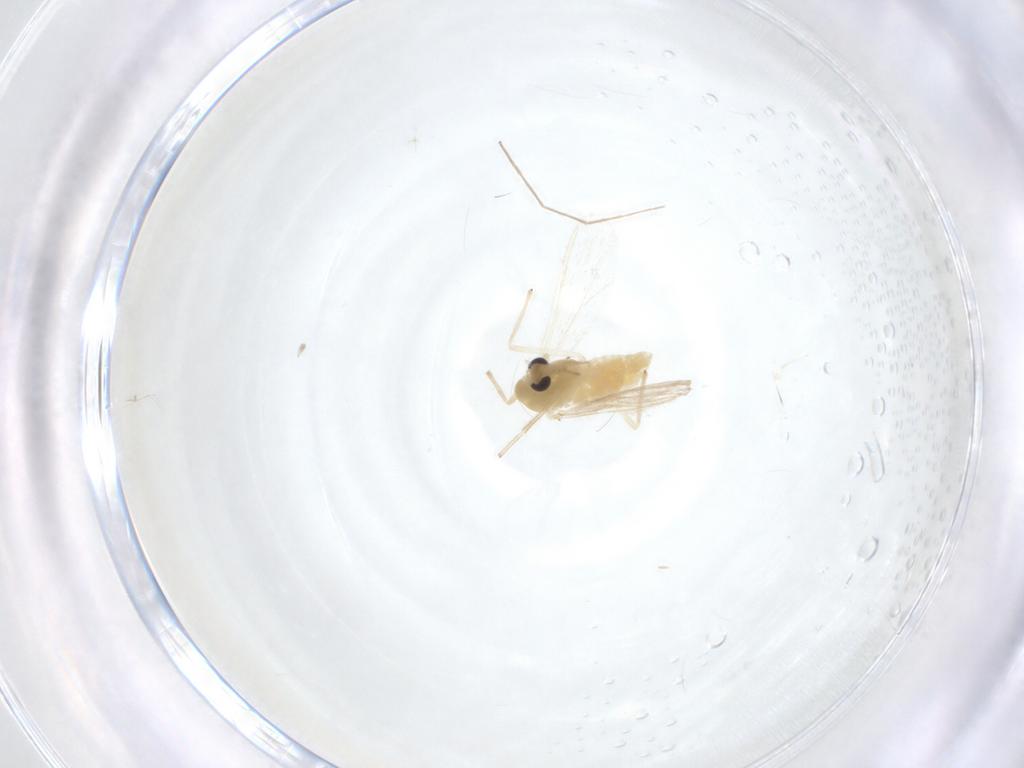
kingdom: Animalia
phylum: Arthropoda
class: Insecta
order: Diptera
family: Chironomidae
